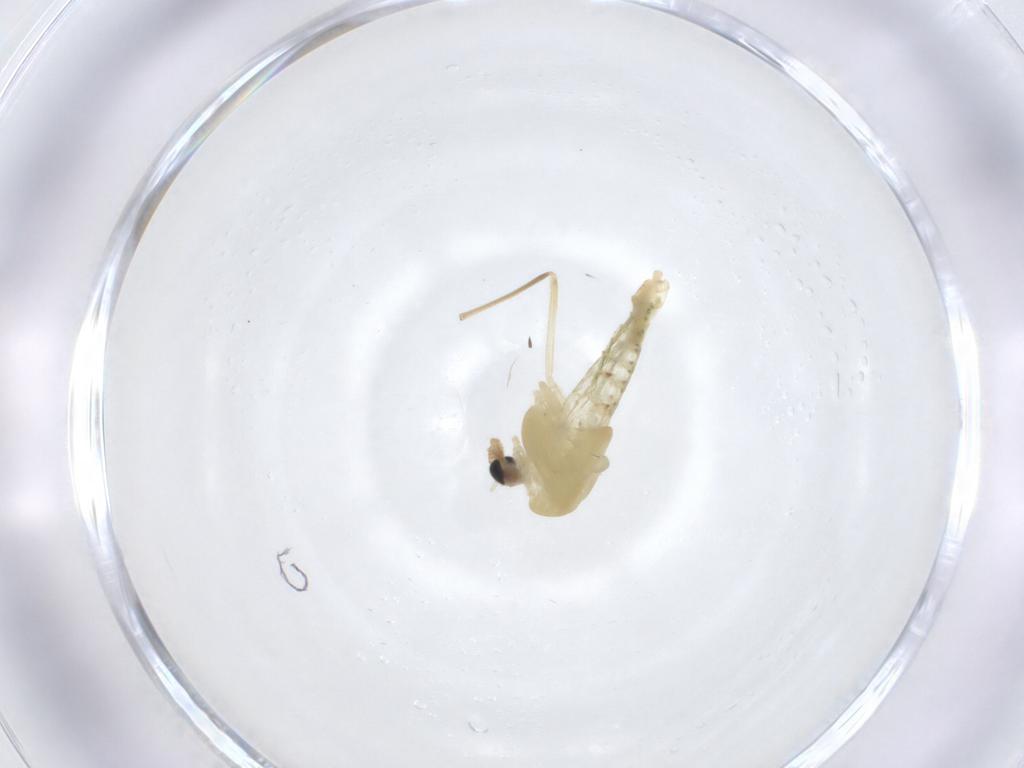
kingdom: Animalia
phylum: Arthropoda
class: Insecta
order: Diptera
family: Chironomidae
